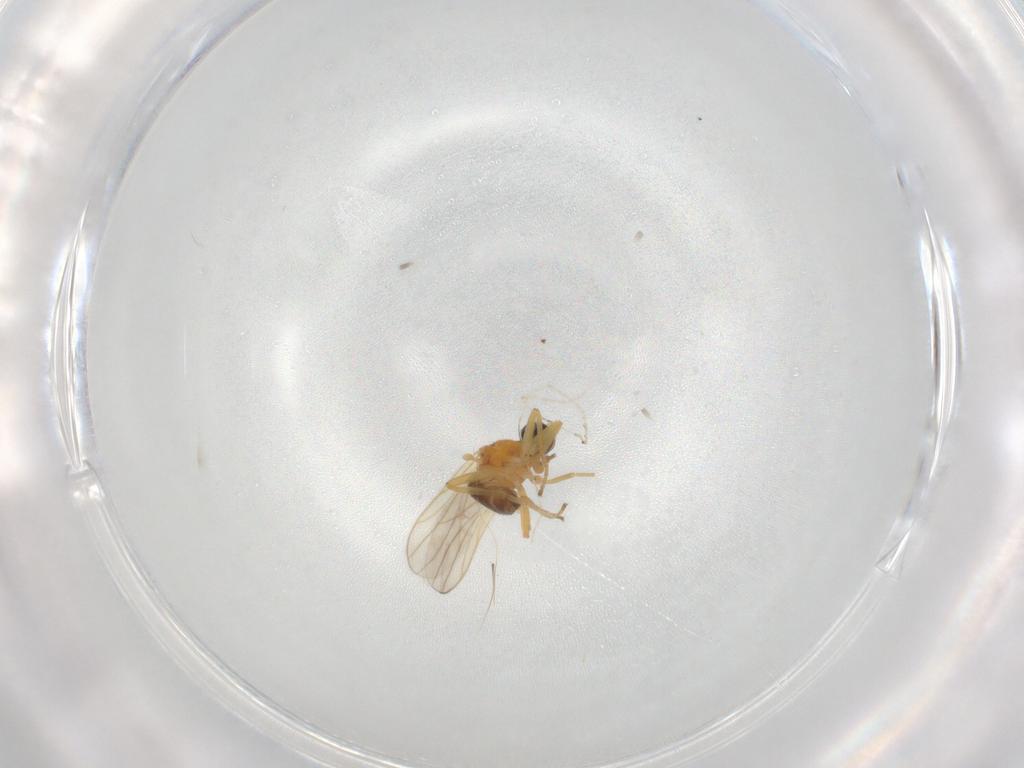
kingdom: Animalia
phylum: Arthropoda
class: Insecta
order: Diptera
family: Hybotidae
